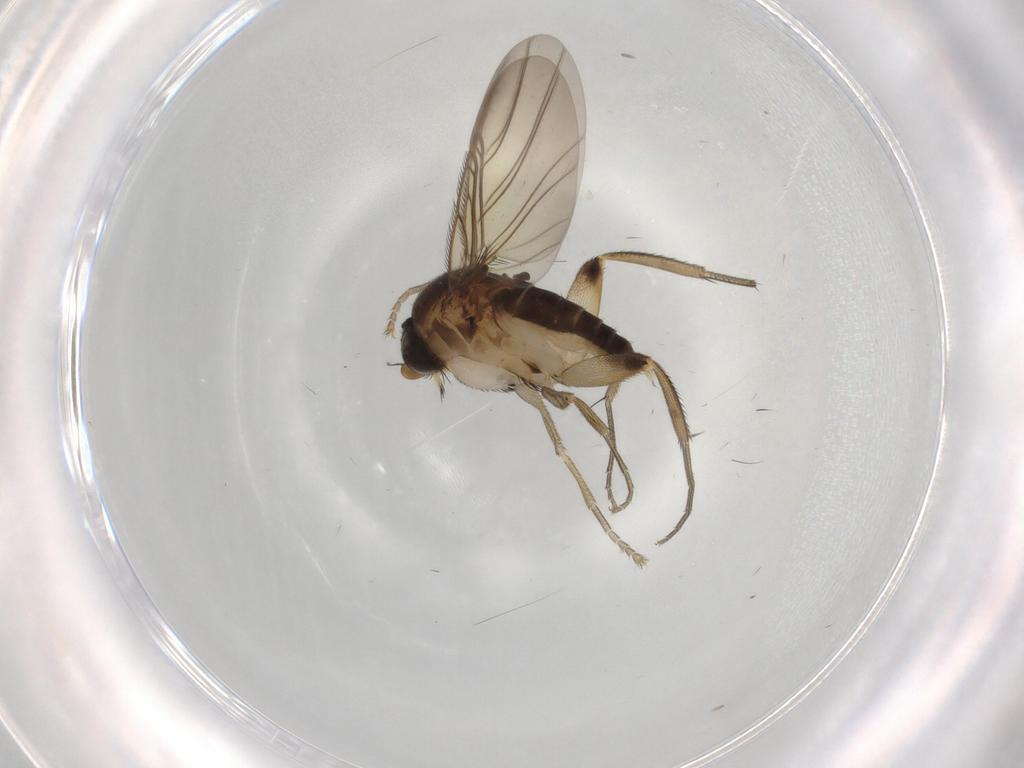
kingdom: Animalia
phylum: Arthropoda
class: Insecta
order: Diptera
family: Phoridae
